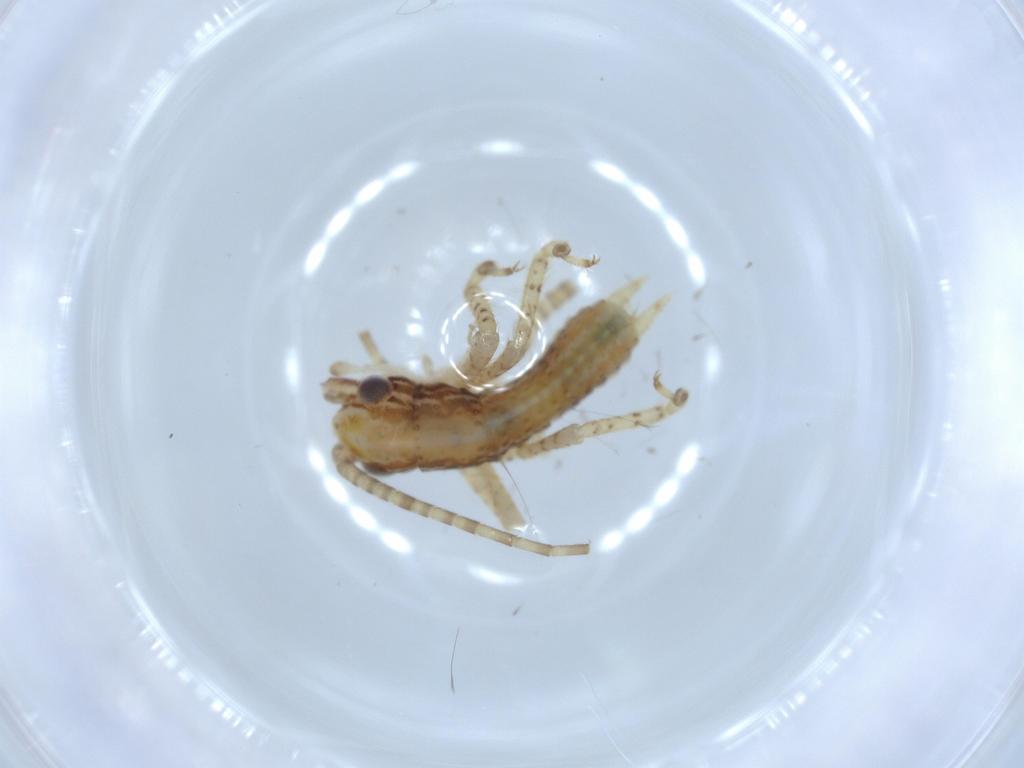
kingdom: Animalia
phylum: Arthropoda
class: Insecta
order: Orthoptera
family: Gryllidae
